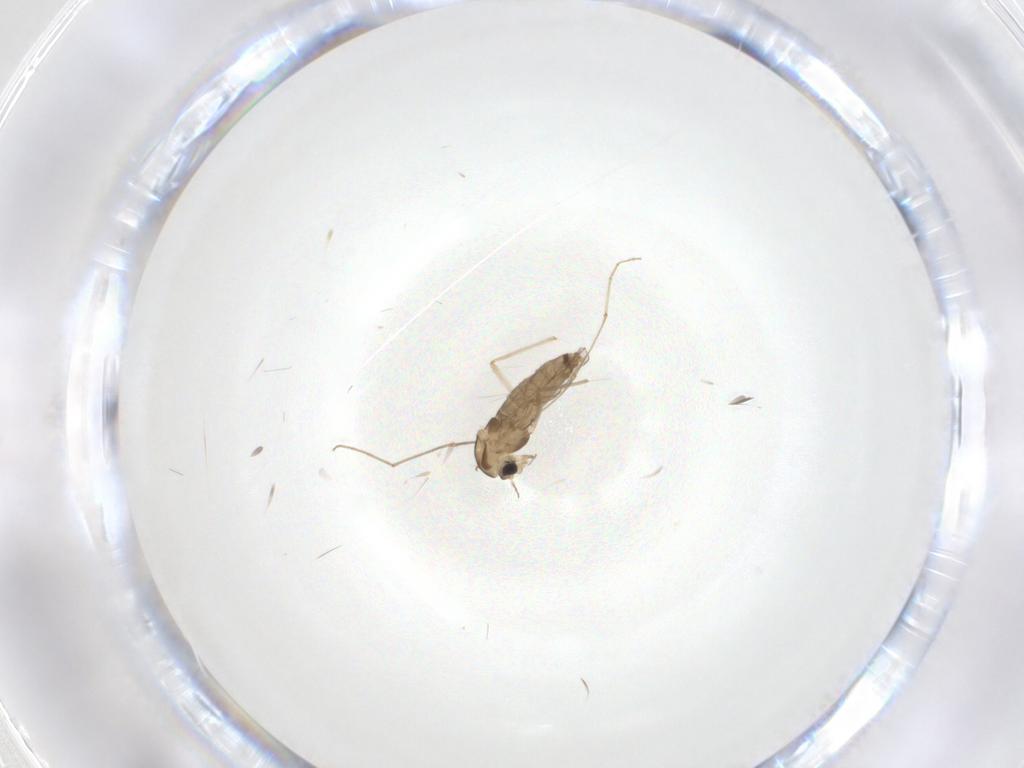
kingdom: Animalia
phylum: Arthropoda
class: Insecta
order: Diptera
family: Chironomidae
